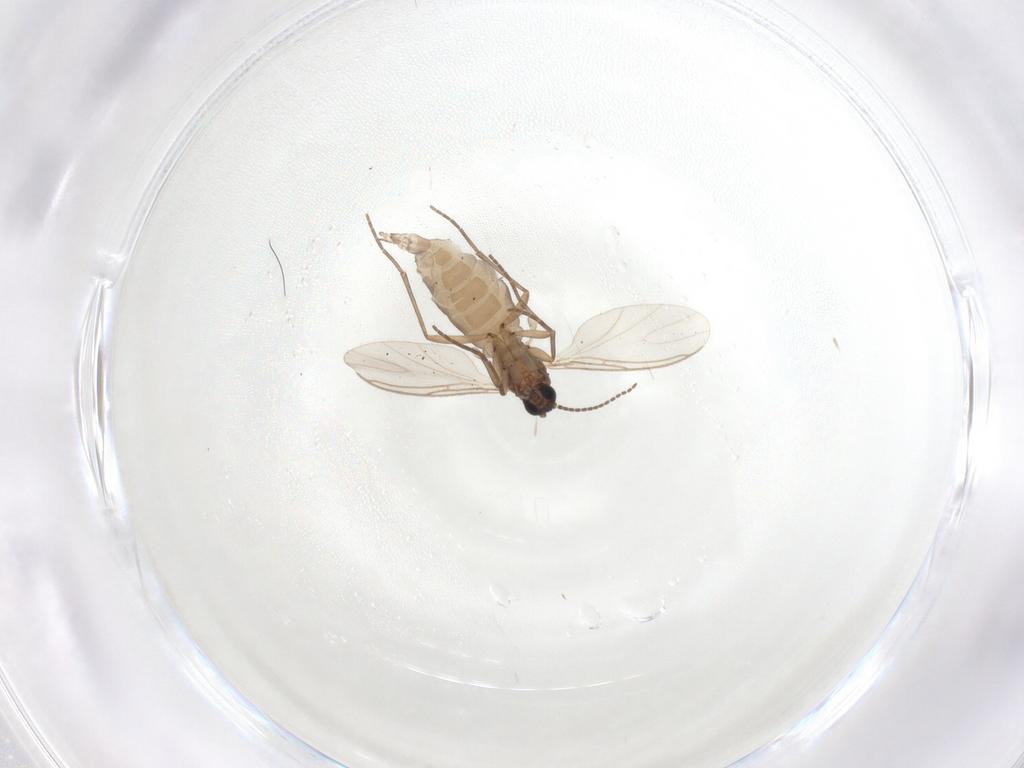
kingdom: Animalia
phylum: Arthropoda
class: Insecta
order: Diptera
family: Sciaridae
